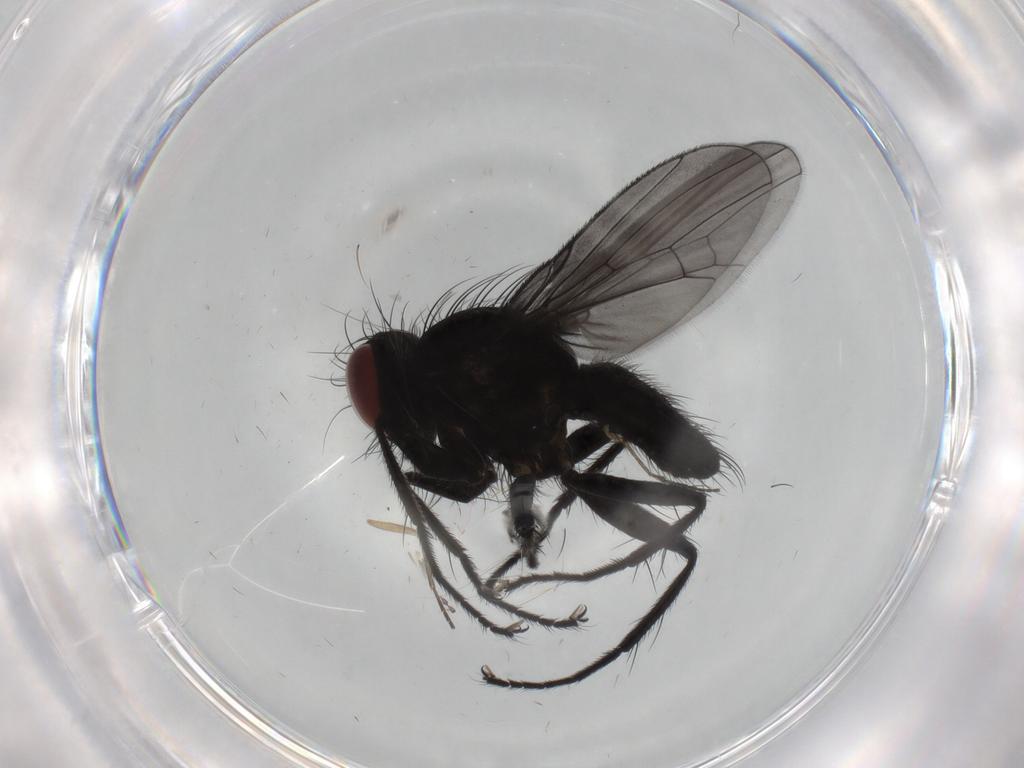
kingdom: Animalia
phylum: Arthropoda
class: Insecta
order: Diptera
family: Muscidae
